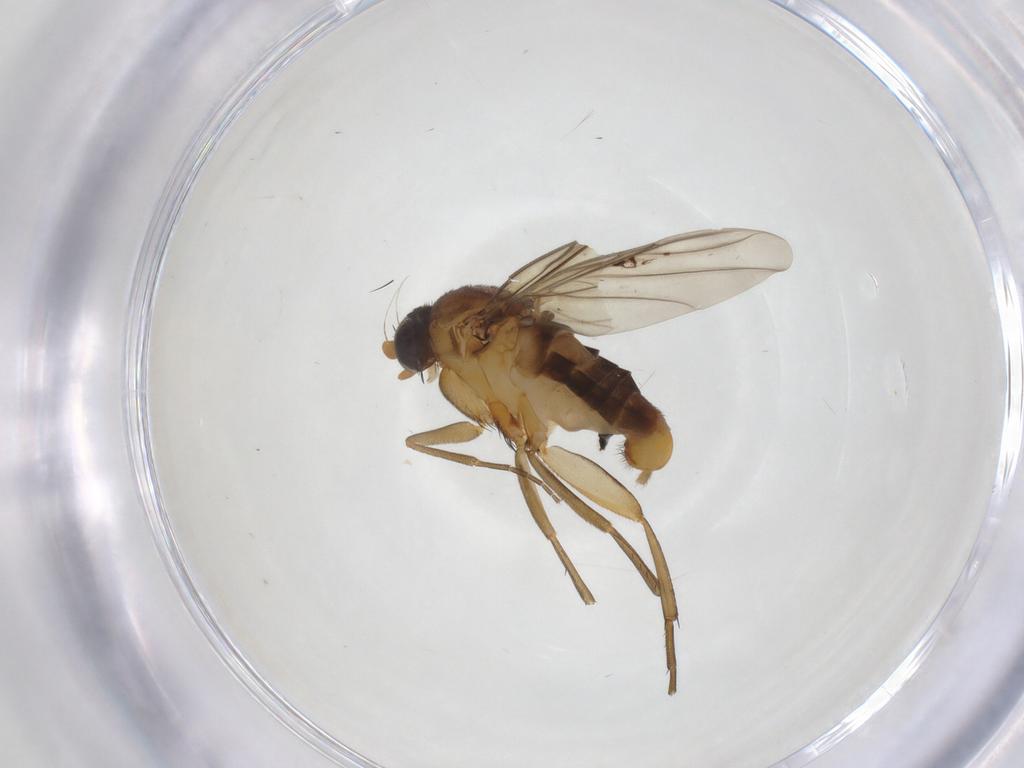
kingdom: Animalia
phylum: Arthropoda
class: Insecta
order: Diptera
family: Phoridae
